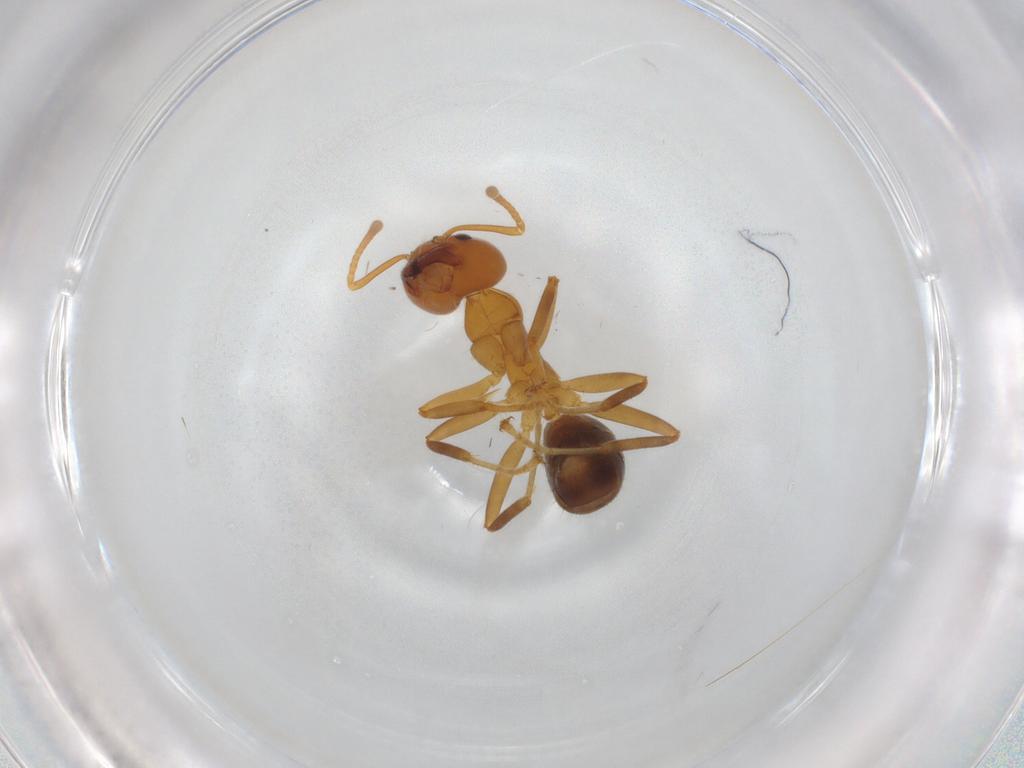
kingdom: Animalia
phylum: Arthropoda
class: Insecta
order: Hymenoptera
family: Formicidae
